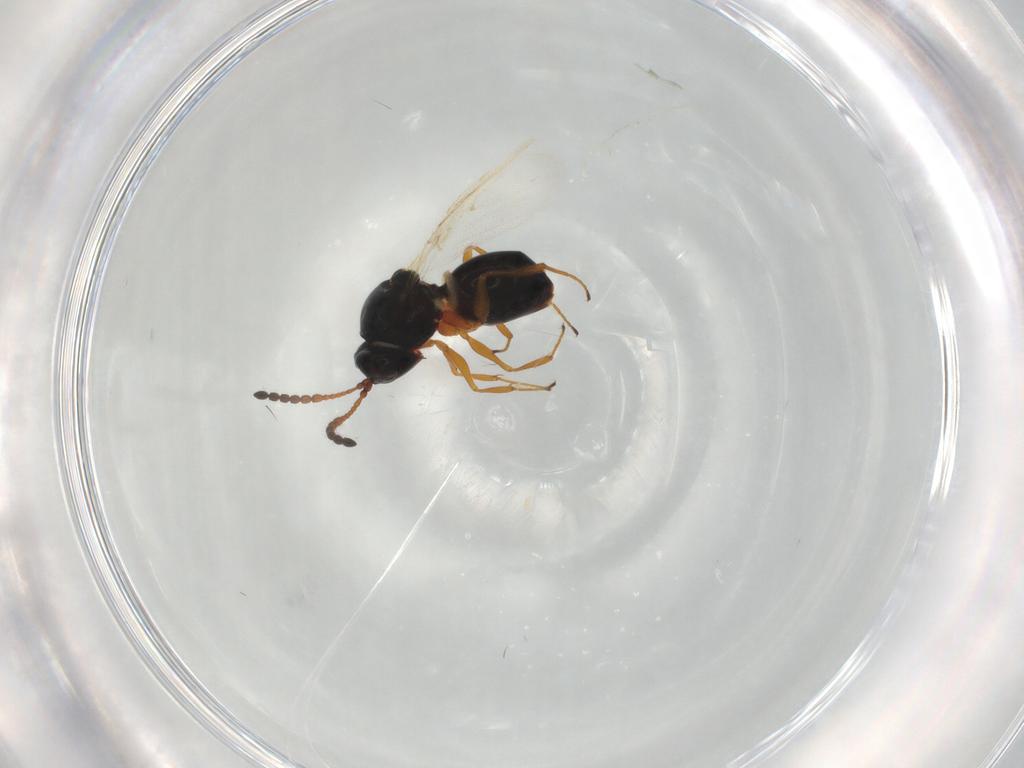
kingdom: Animalia
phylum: Arthropoda
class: Insecta
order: Hymenoptera
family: Figitidae
